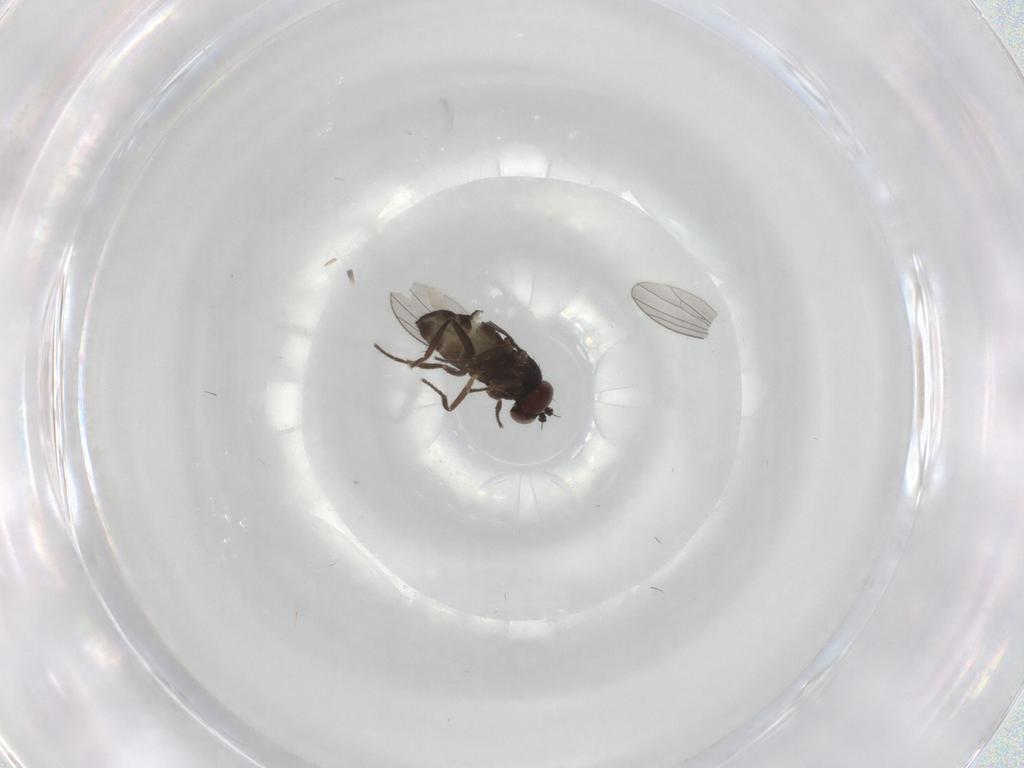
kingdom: Animalia
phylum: Arthropoda
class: Insecta
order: Diptera
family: Dolichopodidae
